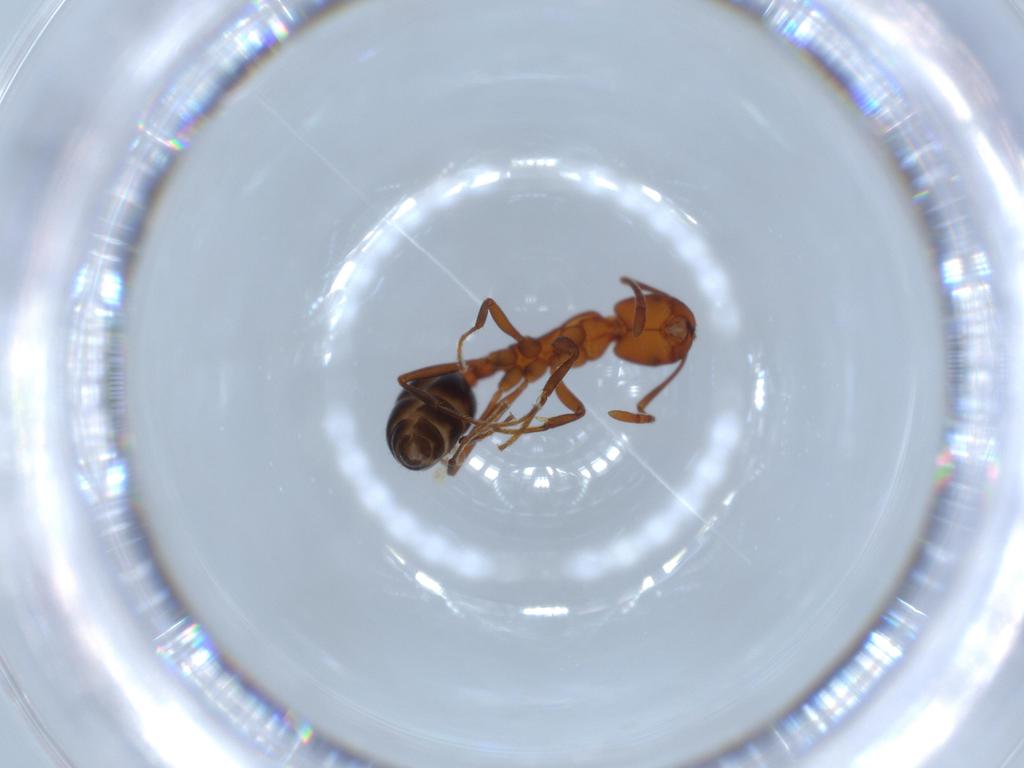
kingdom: Animalia
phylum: Arthropoda
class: Insecta
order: Hymenoptera
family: Formicidae
